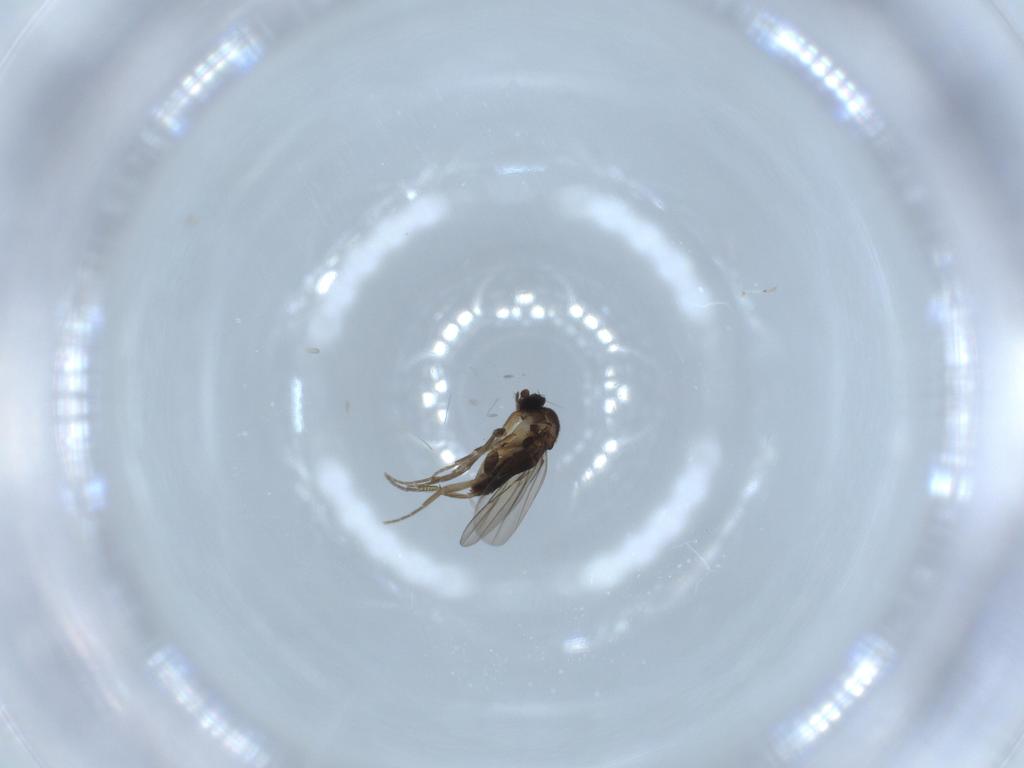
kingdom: Animalia
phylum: Arthropoda
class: Insecta
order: Diptera
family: Phoridae
